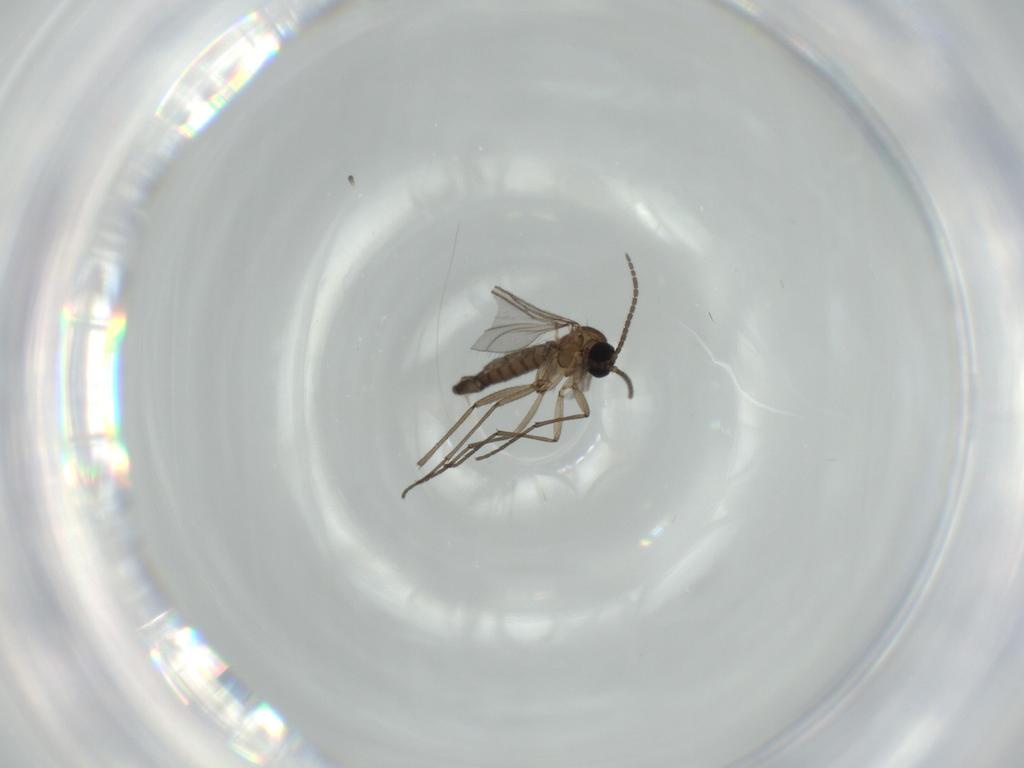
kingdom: Animalia
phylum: Arthropoda
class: Insecta
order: Diptera
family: Sciaridae
